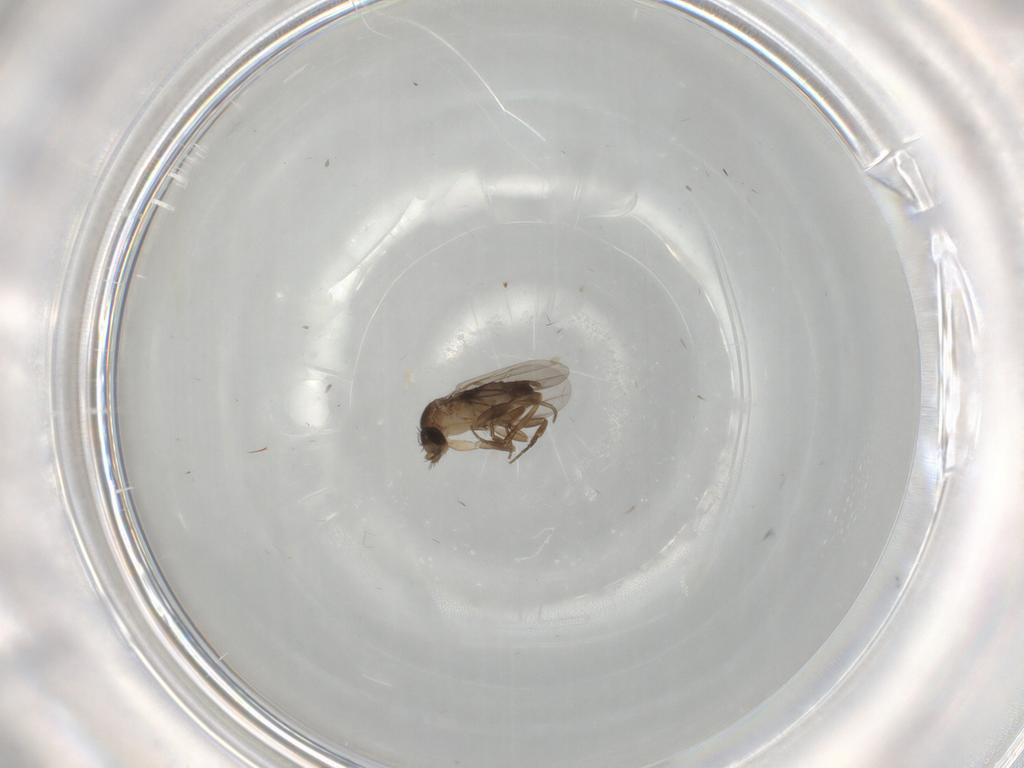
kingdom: Animalia
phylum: Arthropoda
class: Insecta
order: Diptera
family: Phoridae
